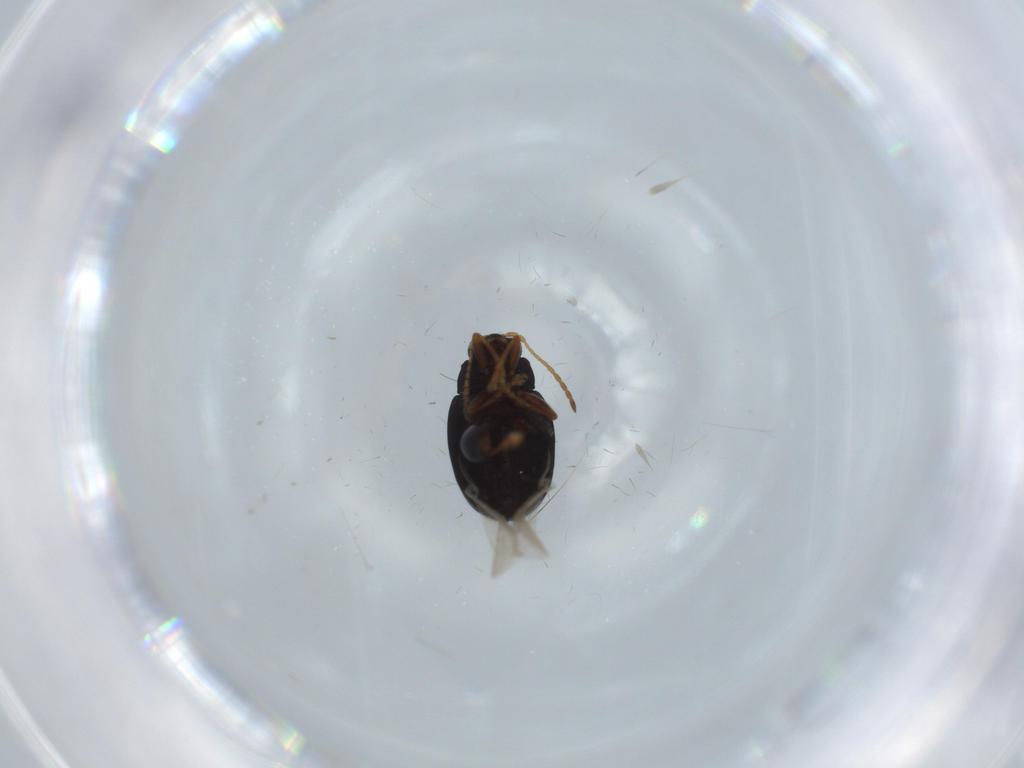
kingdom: Animalia
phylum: Arthropoda
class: Insecta
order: Coleoptera
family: Chrysomelidae
